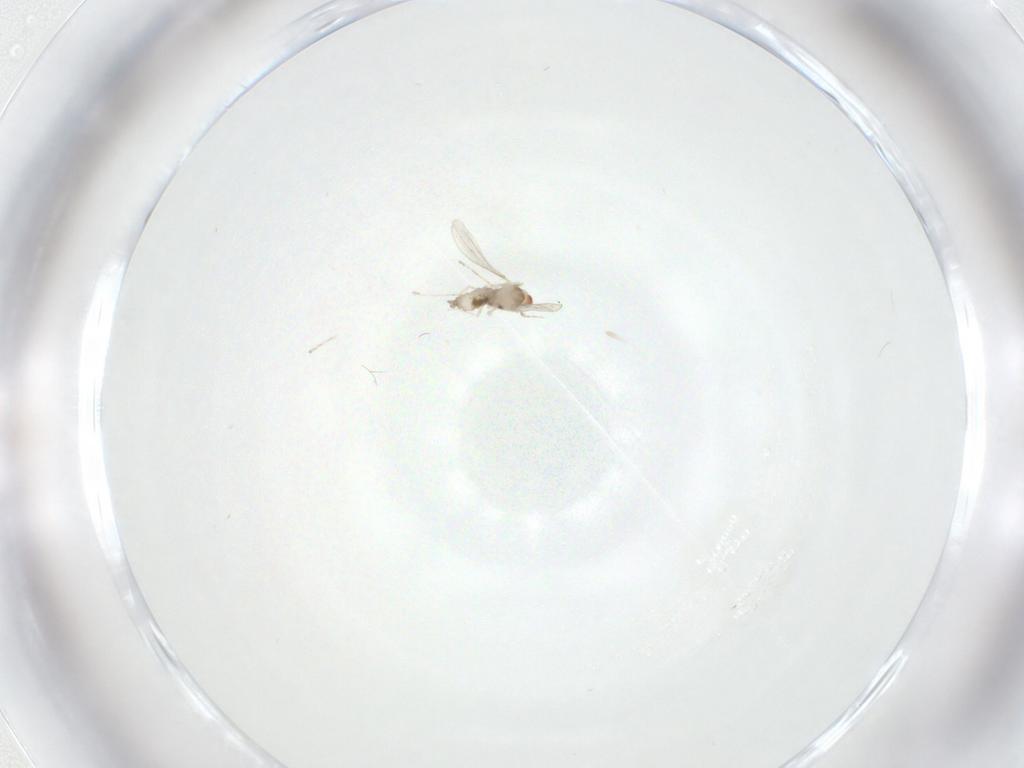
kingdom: Animalia
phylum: Arthropoda
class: Insecta
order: Diptera
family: Cecidomyiidae
